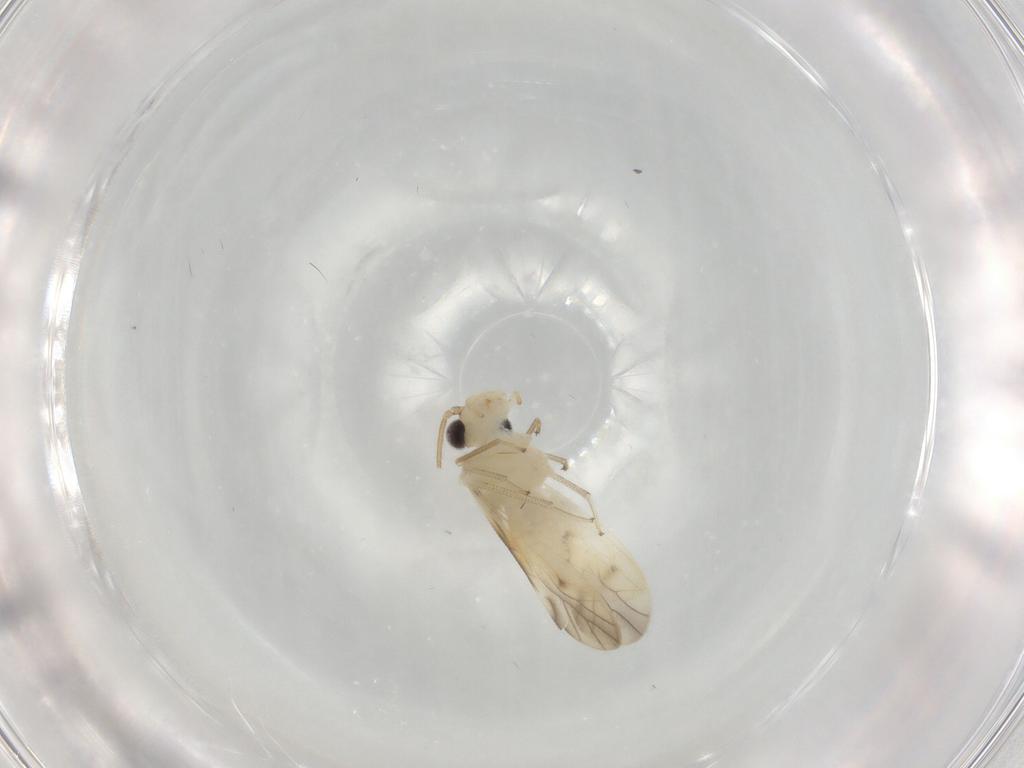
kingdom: Animalia
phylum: Arthropoda
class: Insecta
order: Psocodea
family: Caeciliusidae
